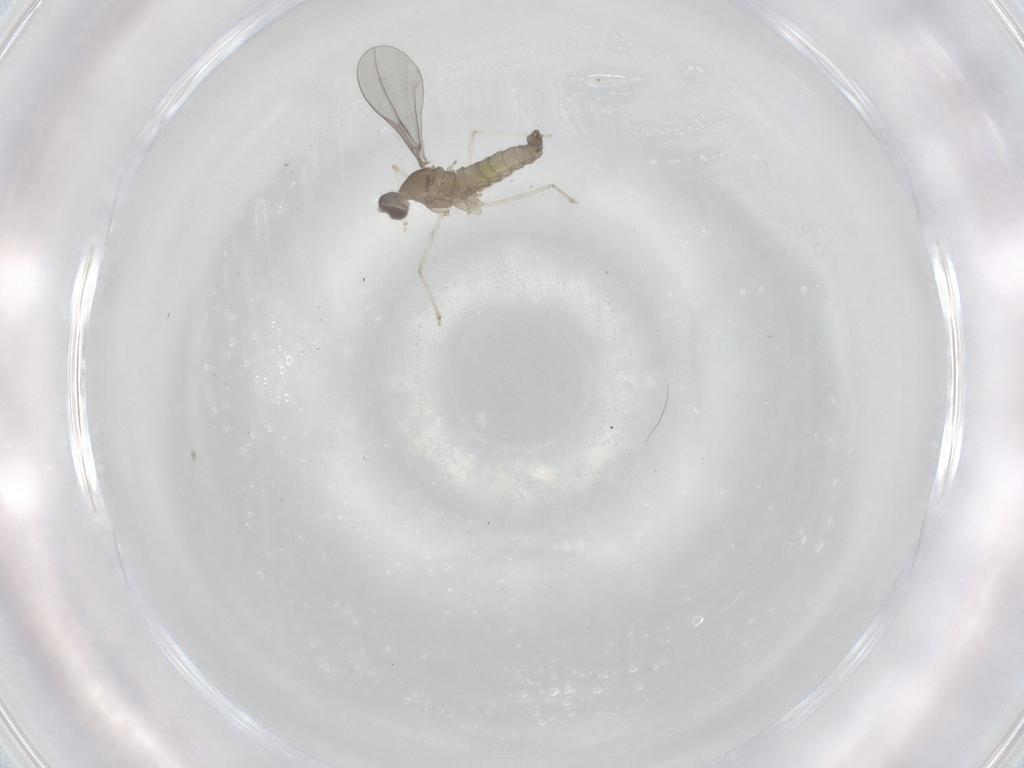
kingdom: Animalia
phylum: Arthropoda
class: Insecta
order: Diptera
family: Cecidomyiidae
